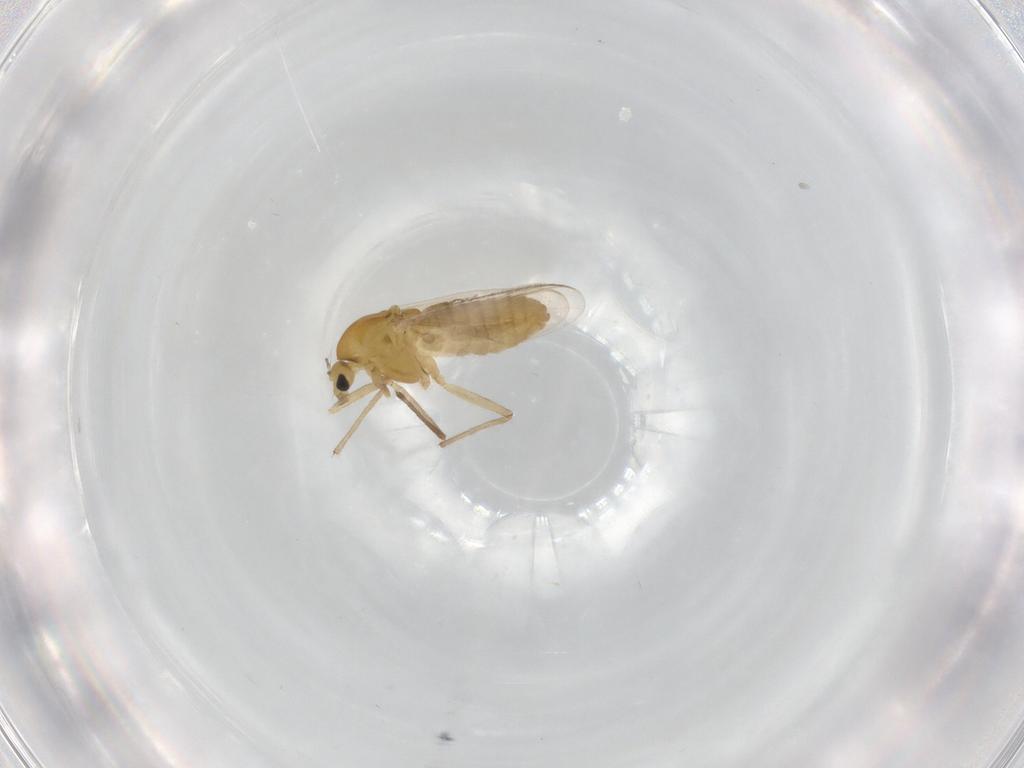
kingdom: Animalia
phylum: Arthropoda
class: Insecta
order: Diptera
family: Chironomidae
